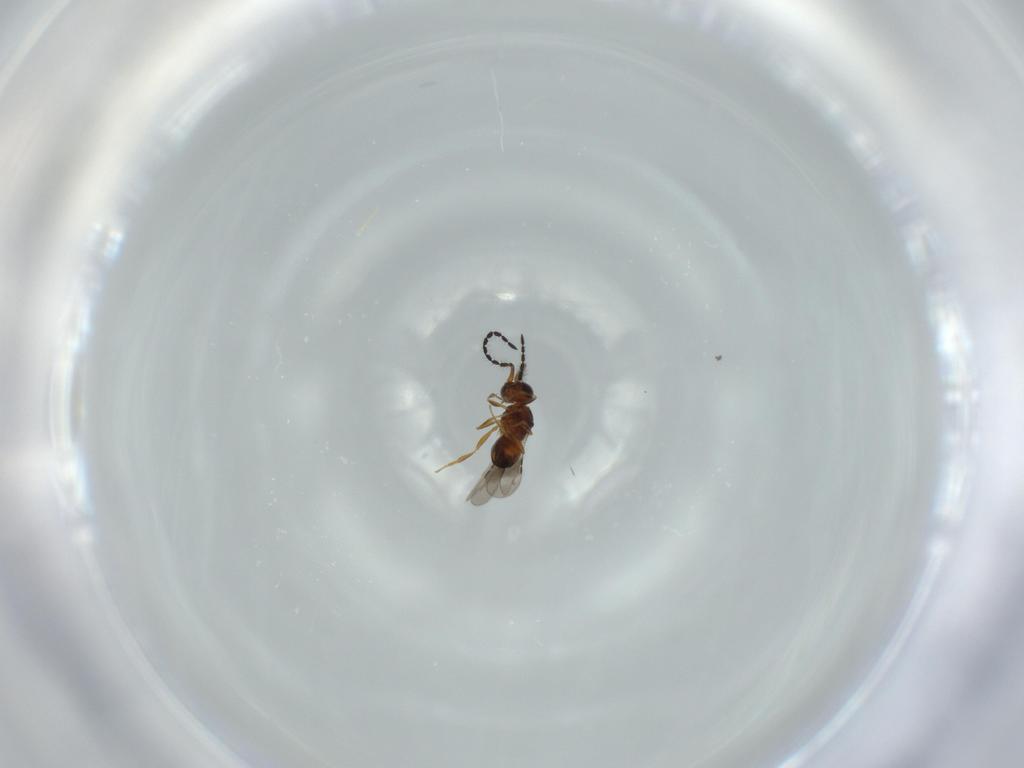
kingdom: Animalia
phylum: Arthropoda
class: Insecta
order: Hymenoptera
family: Ceraphronidae
